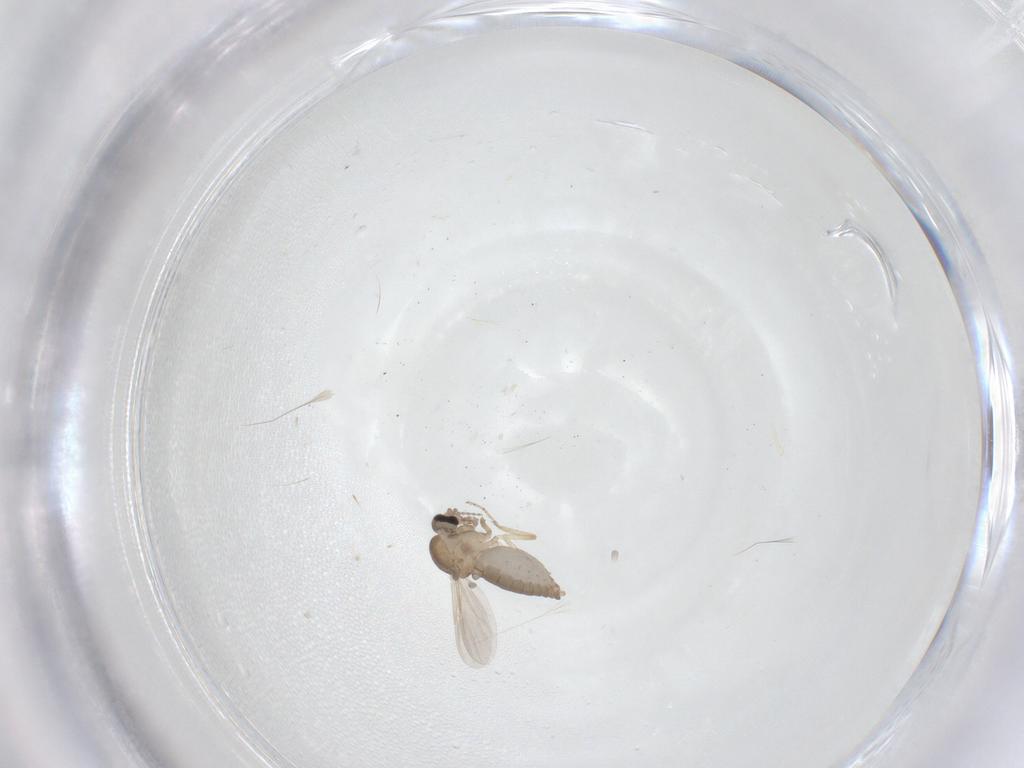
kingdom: Animalia
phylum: Arthropoda
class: Insecta
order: Diptera
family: Ceratopogonidae
